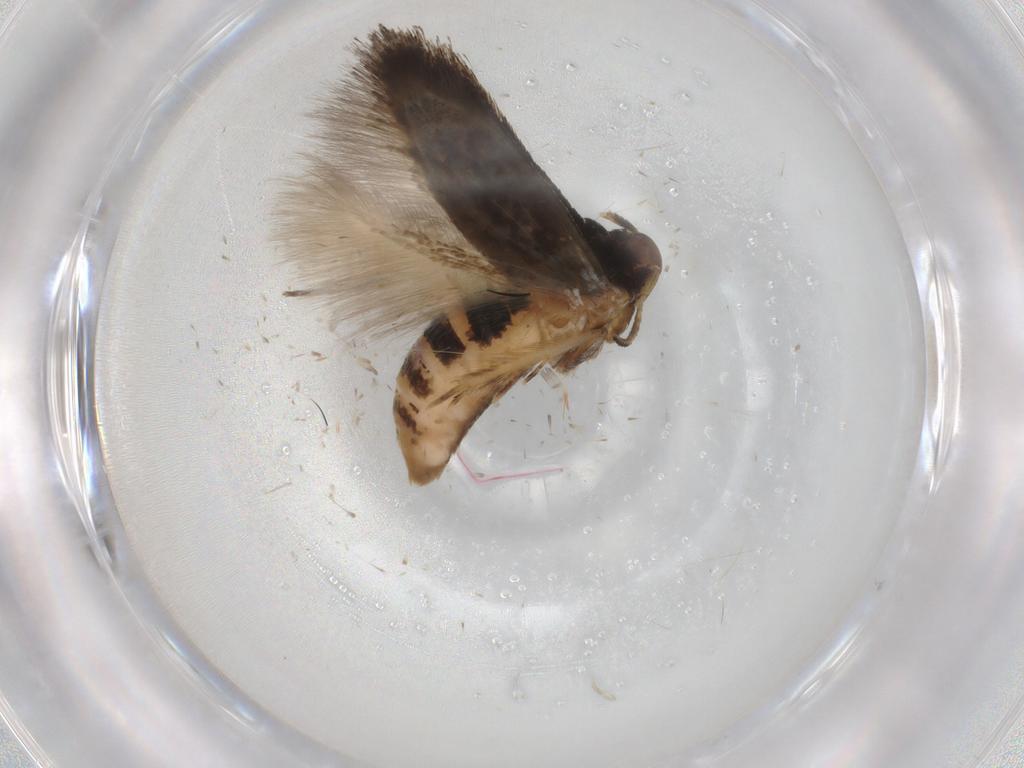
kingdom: Animalia
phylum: Arthropoda
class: Insecta
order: Lepidoptera
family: Cosmopterigidae
